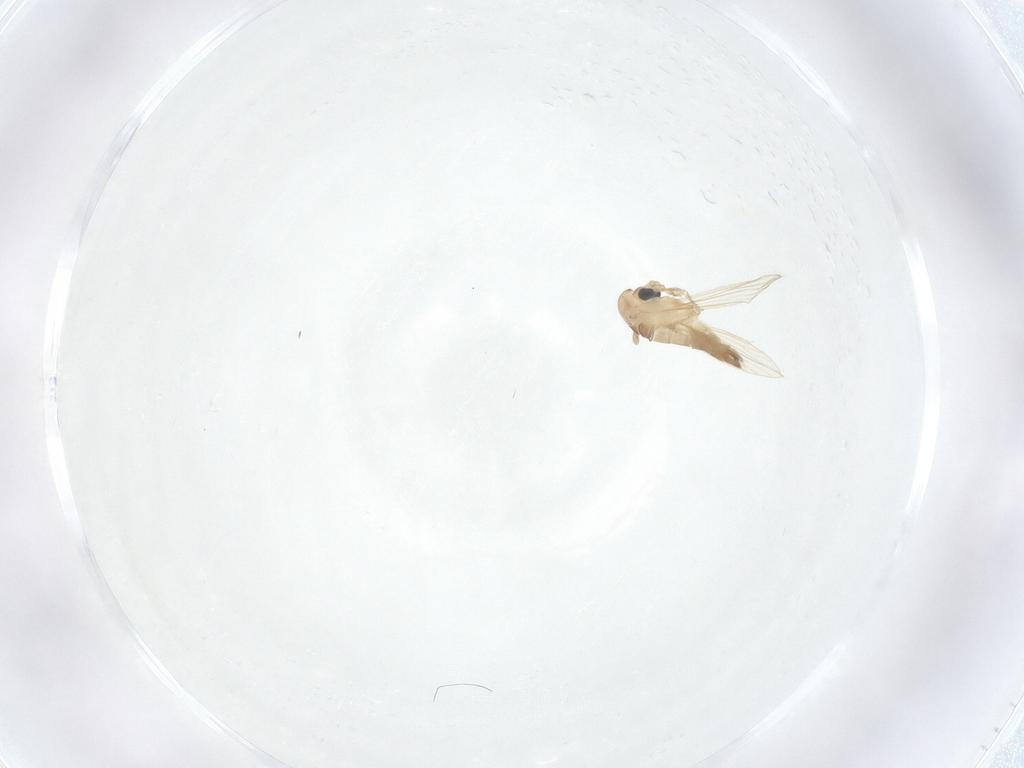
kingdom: Animalia
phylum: Arthropoda
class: Insecta
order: Diptera
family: Psychodidae
